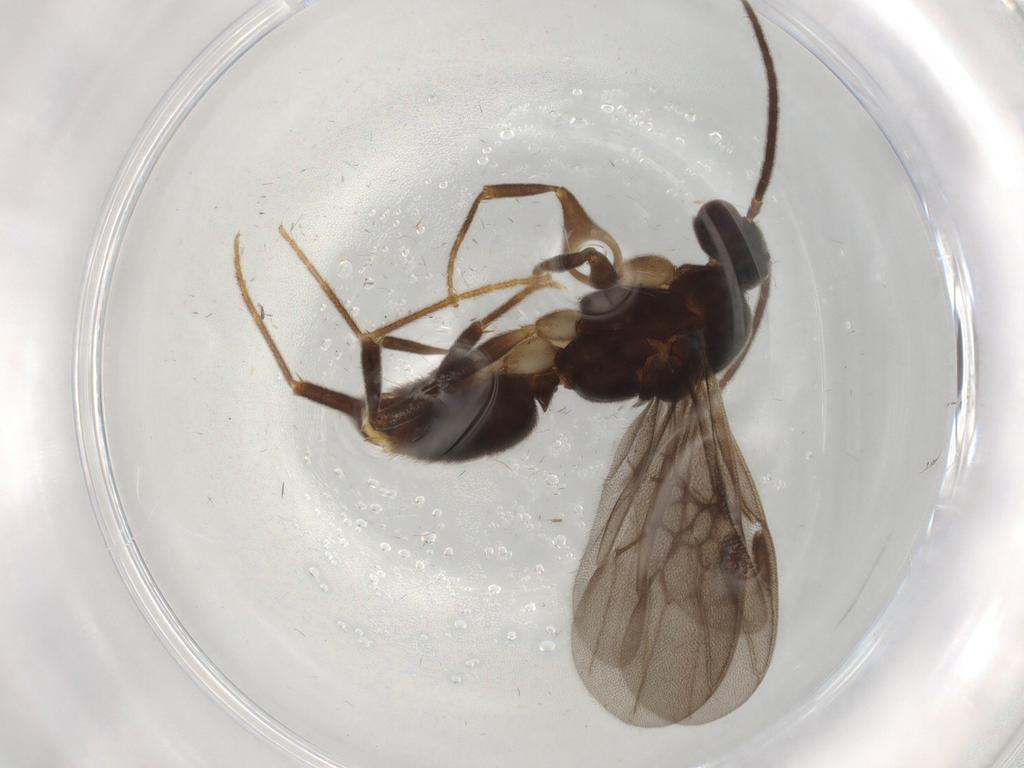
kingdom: Animalia
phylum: Arthropoda
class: Insecta
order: Hymenoptera
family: Formicidae
